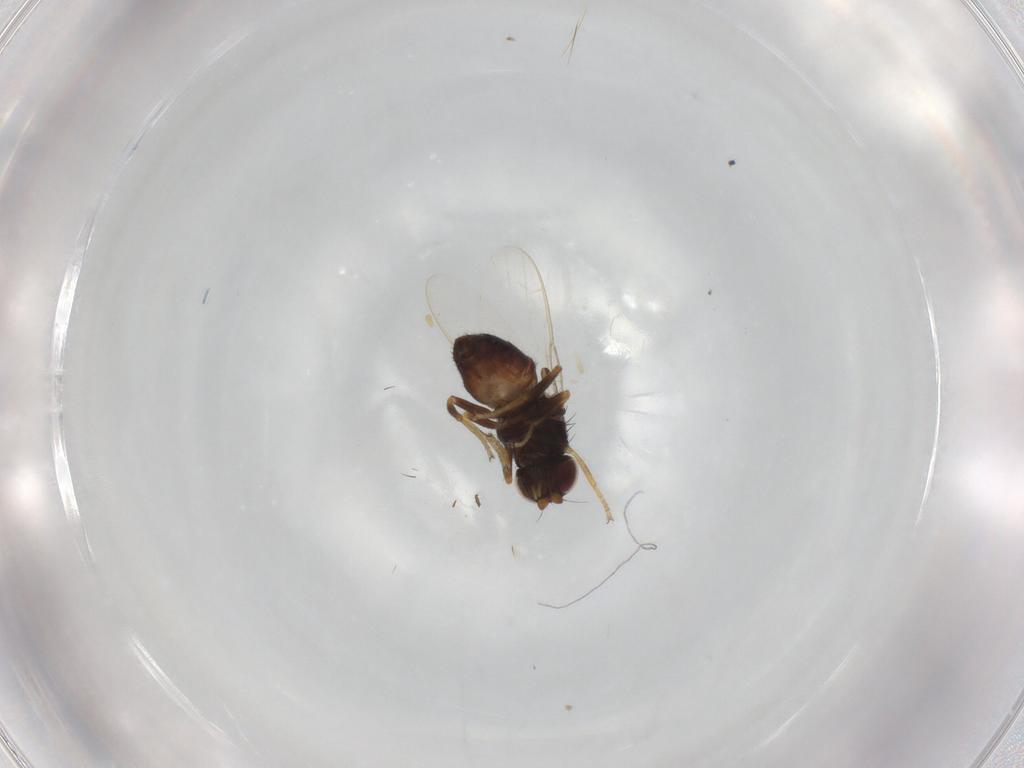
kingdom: Animalia
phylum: Arthropoda
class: Insecta
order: Diptera
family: Chloropidae
